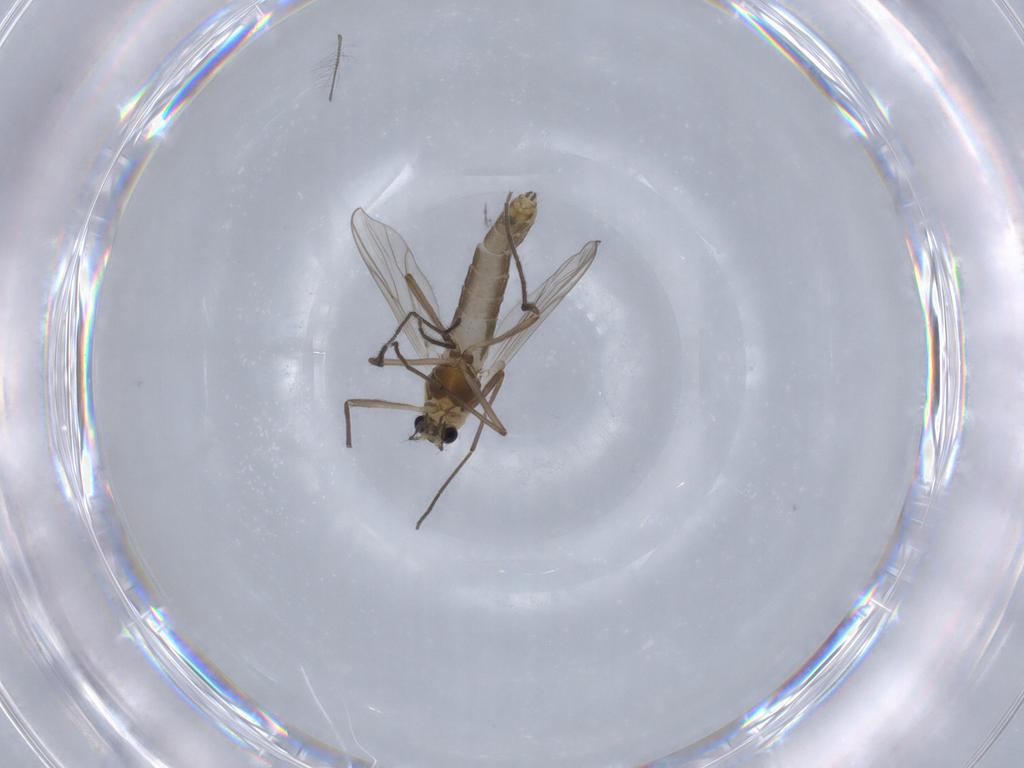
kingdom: Animalia
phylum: Arthropoda
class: Insecta
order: Diptera
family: Chironomidae
